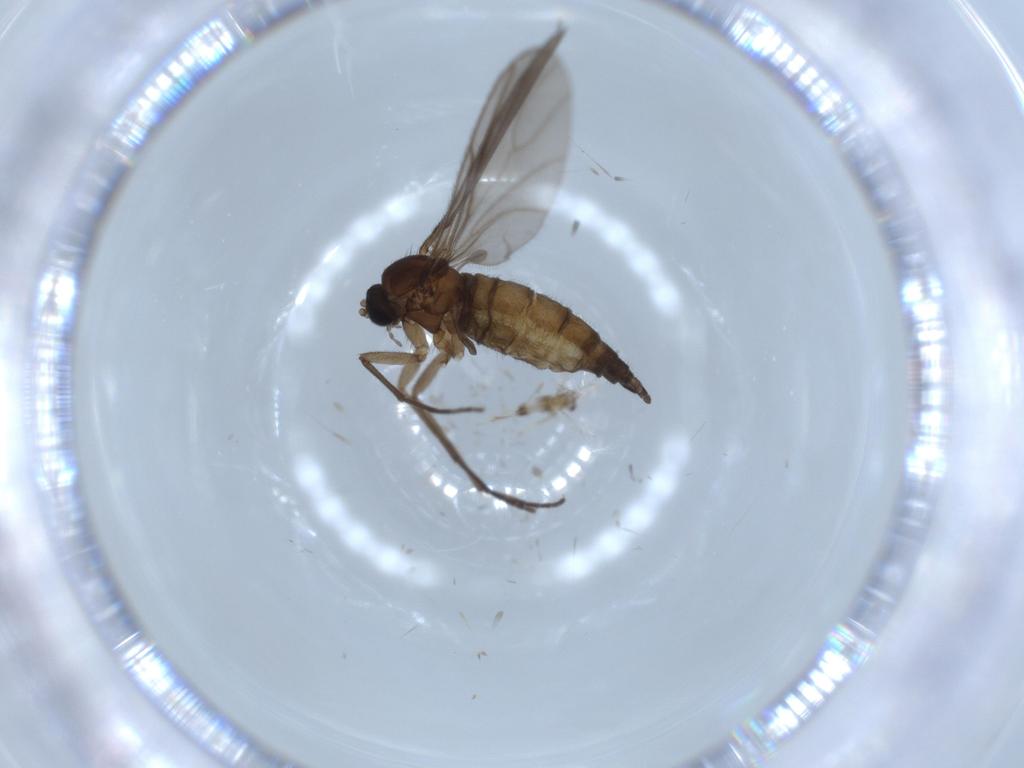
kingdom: Animalia
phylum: Arthropoda
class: Insecta
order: Diptera
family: Sciaridae
